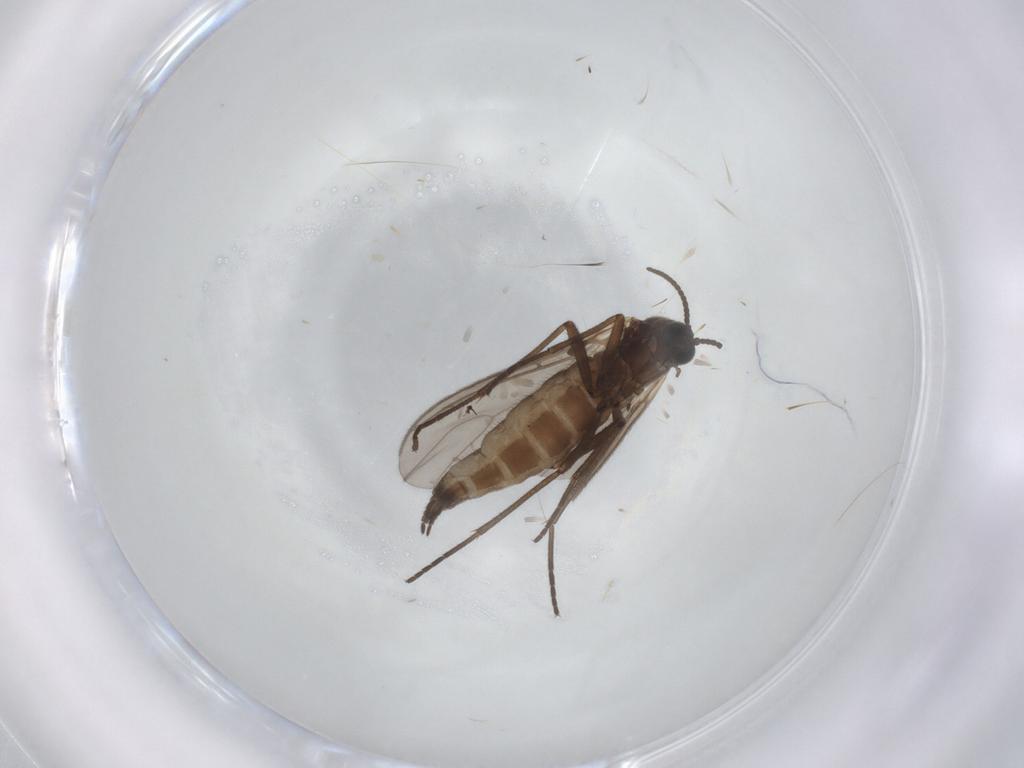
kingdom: Animalia
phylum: Arthropoda
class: Insecta
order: Diptera
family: Sciaridae
